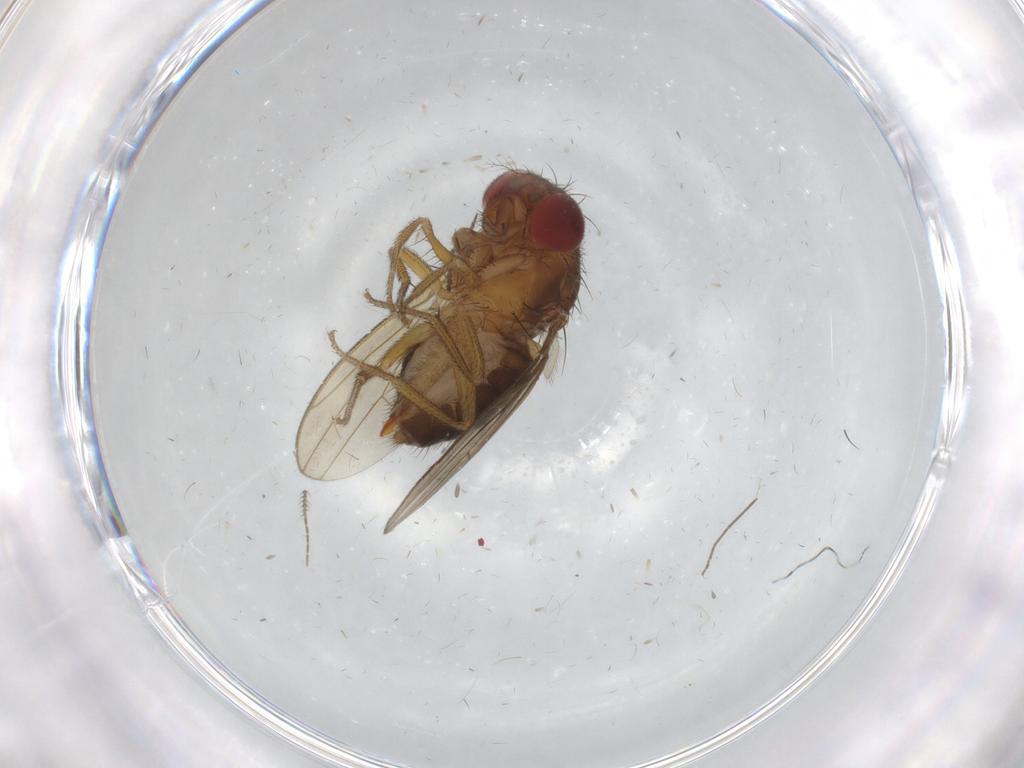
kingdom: Animalia
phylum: Arthropoda
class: Insecta
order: Diptera
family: Drosophilidae
